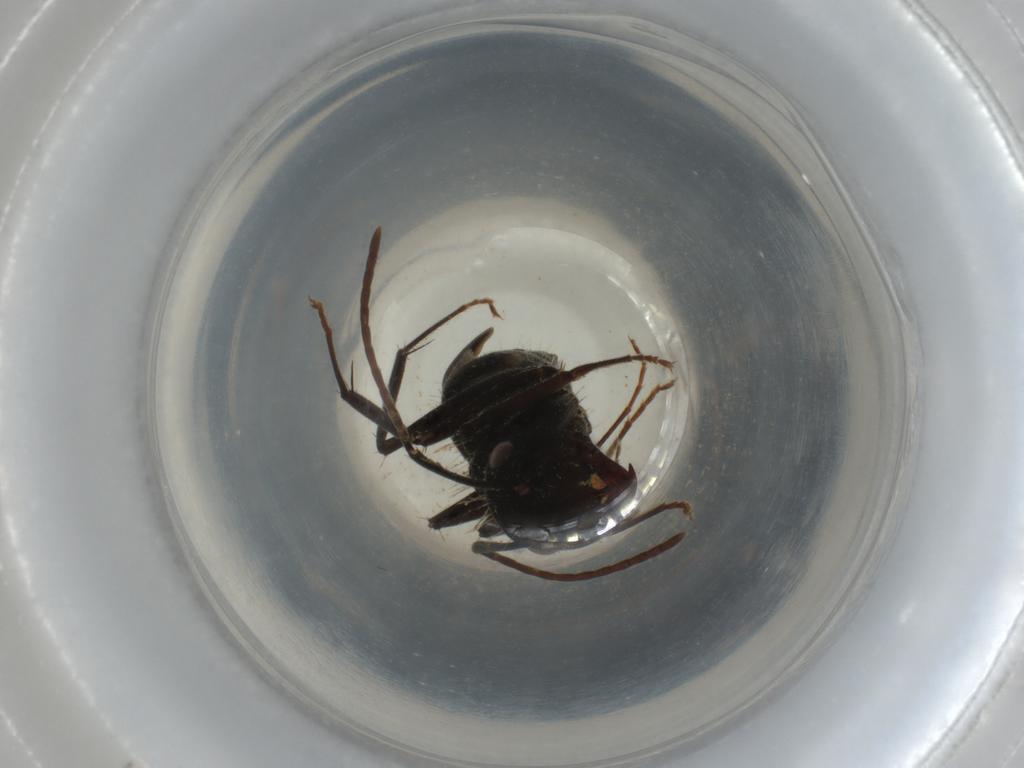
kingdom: Animalia
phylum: Arthropoda
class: Insecta
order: Hymenoptera
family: Formicidae
